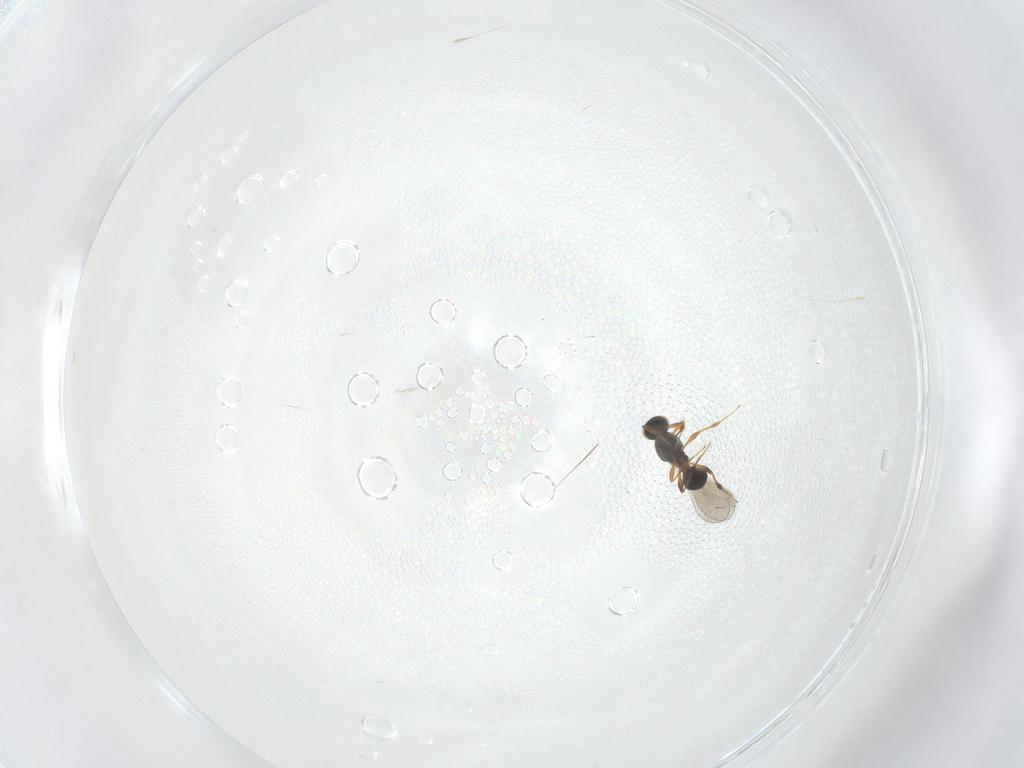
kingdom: Animalia
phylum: Arthropoda
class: Insecta
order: Hymenoptera
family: Platygastridae
